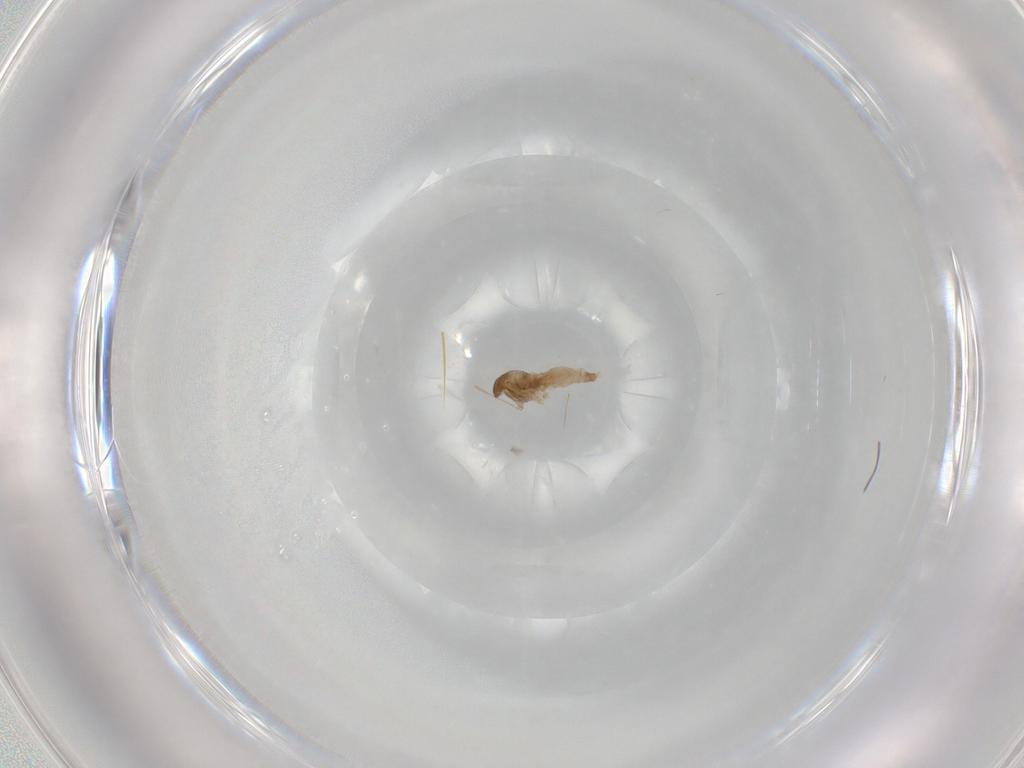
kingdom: Animalia
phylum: Arthropoda
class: Insecta
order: Diptera
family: Cecidomyiidae
